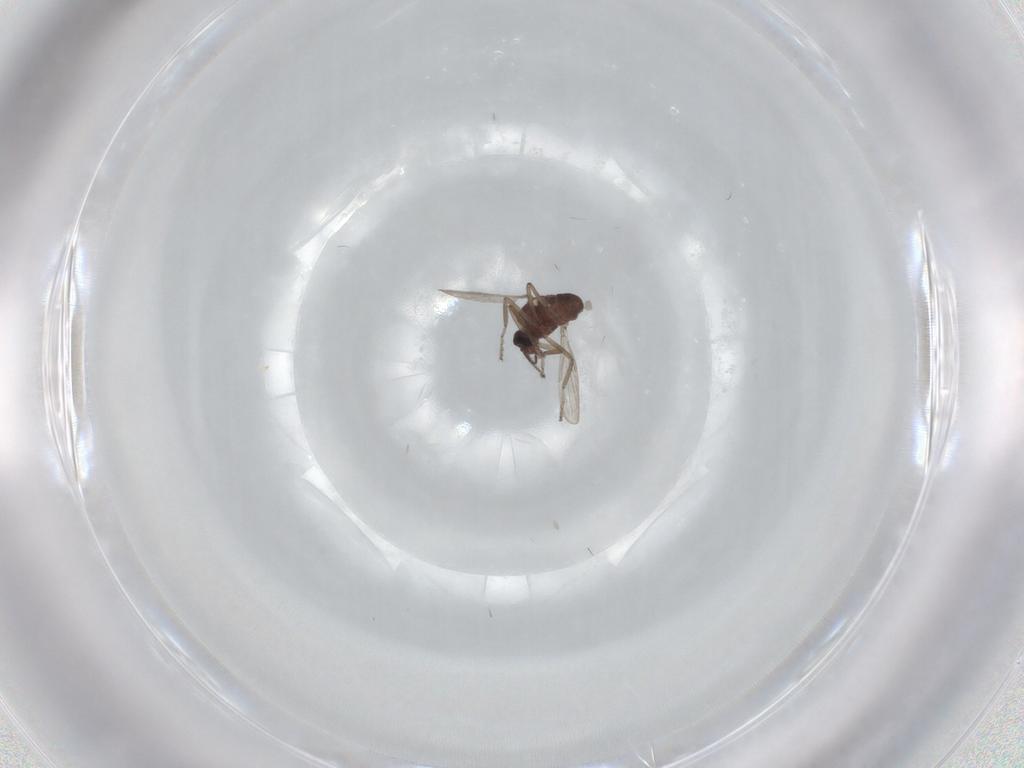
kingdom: Animalia
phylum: Arthropoda
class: Insecta
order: Diptera
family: Ceratopogonidae
